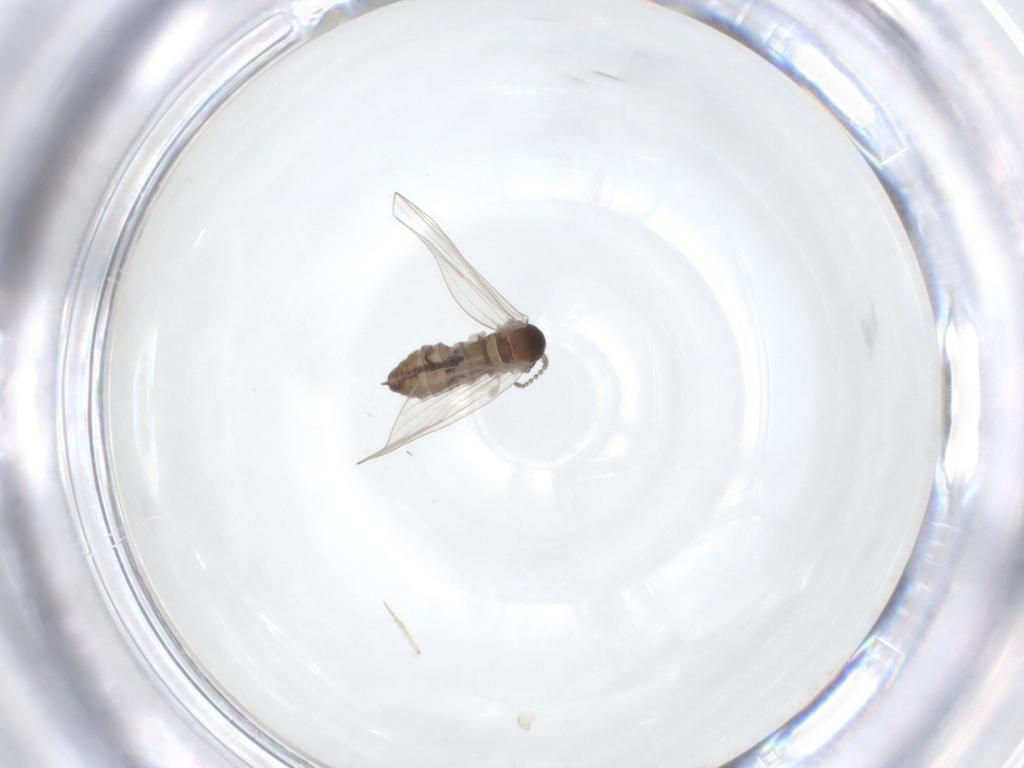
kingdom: Animalia
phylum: Arthropoda
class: Insecta
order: Diptera
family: Psychodidae
